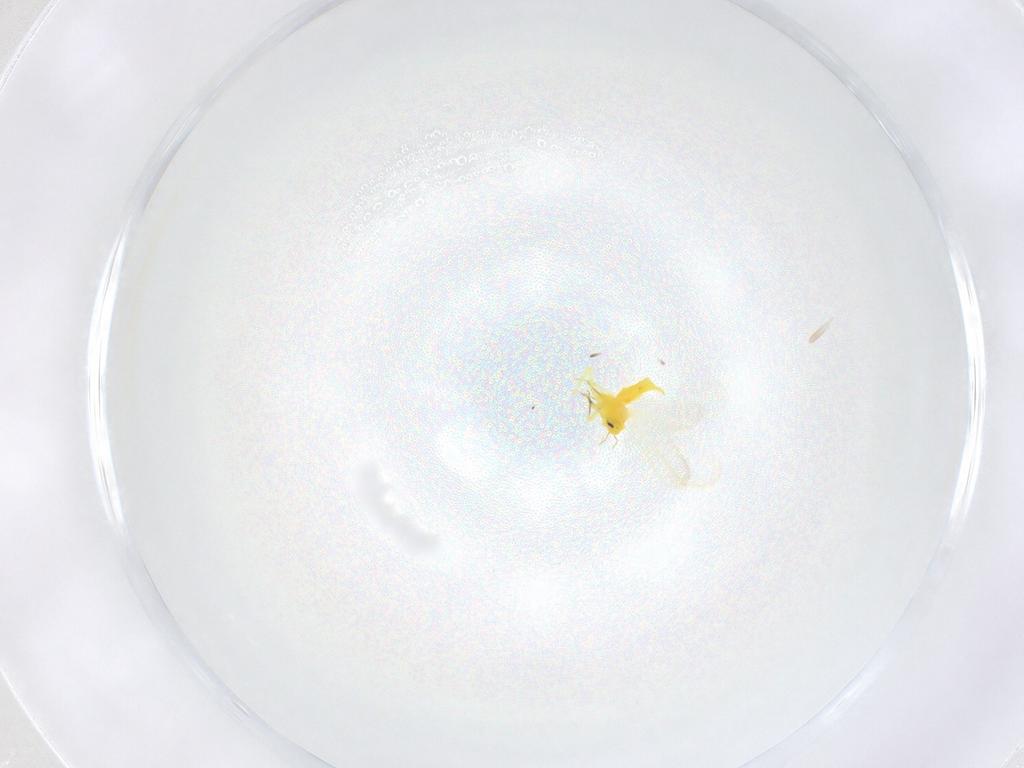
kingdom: Animalia
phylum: Arthropoda
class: Insecta
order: Hemiptera
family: Aleyrodidae
